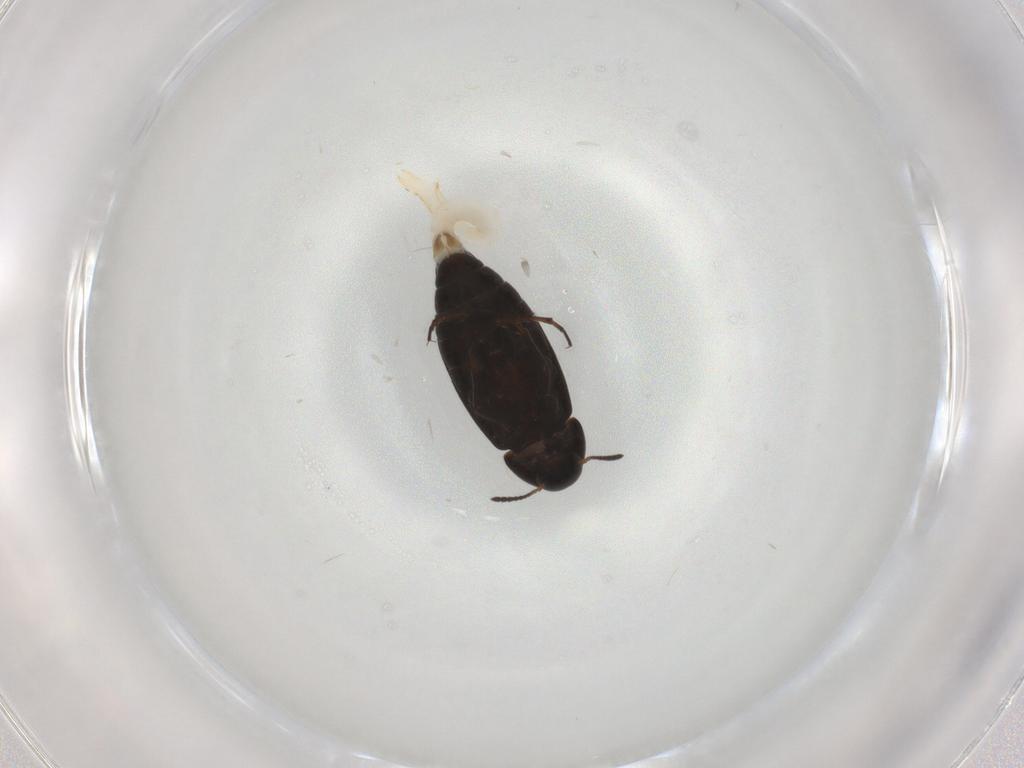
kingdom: Animalia
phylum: Arthropoda
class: Insecta
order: Coleoptera
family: Scraptiidae
